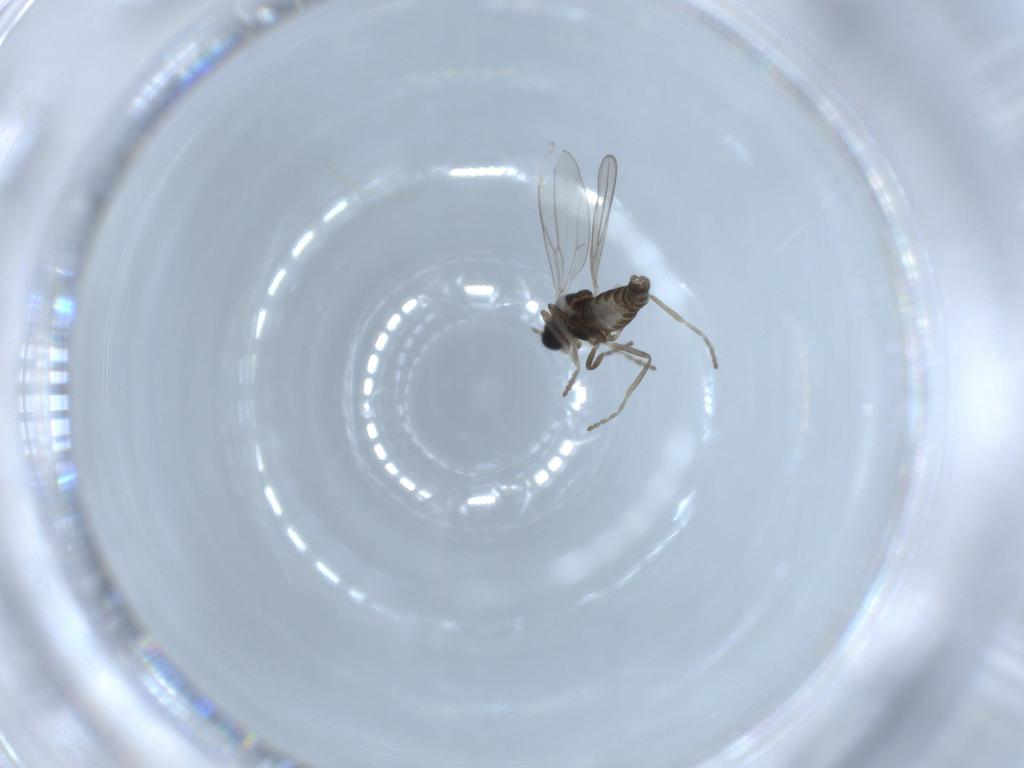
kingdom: Animalia
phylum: Arthropoda
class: Insecta
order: Diptera
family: Cecidomyiidae
